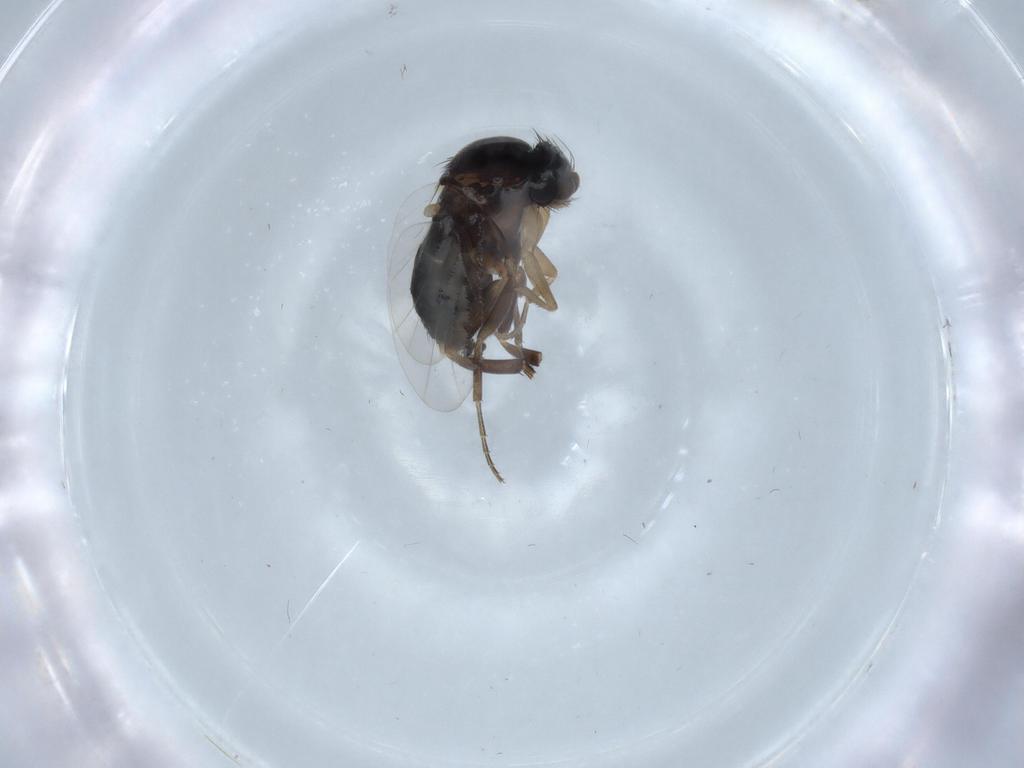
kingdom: Animalia
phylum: Arthropoda
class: Insecta
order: Diptera
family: Phoridae
